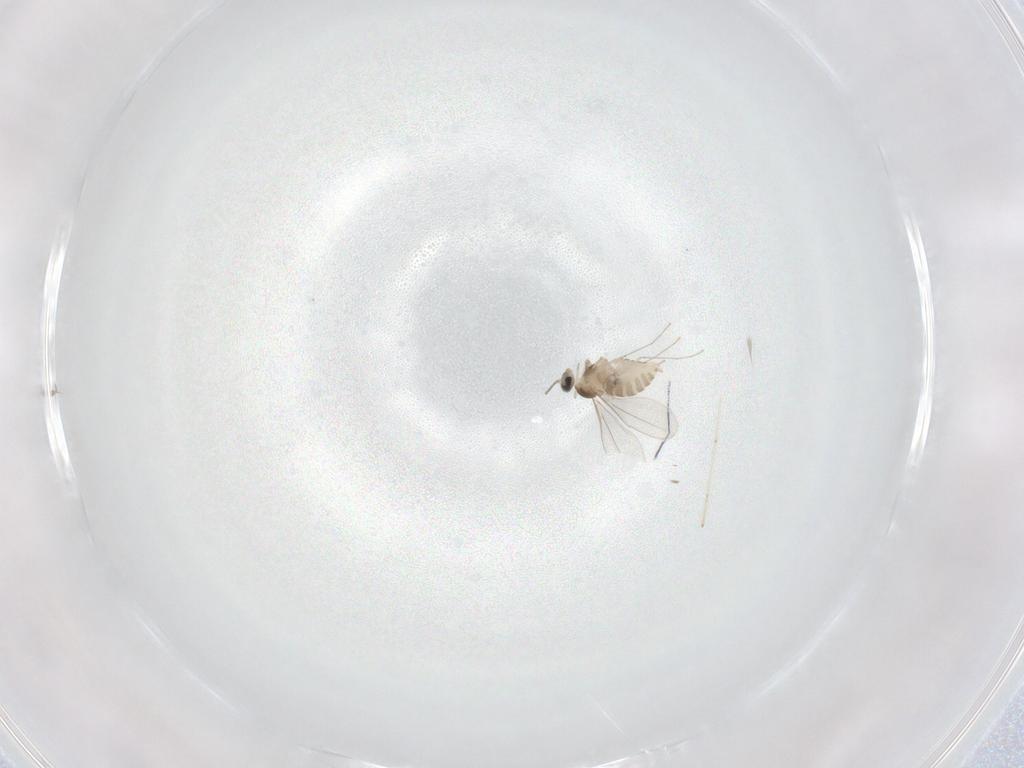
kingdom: Animalia
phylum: Arthropoda
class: Insecta
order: Diptera
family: Cecidomyiidae
